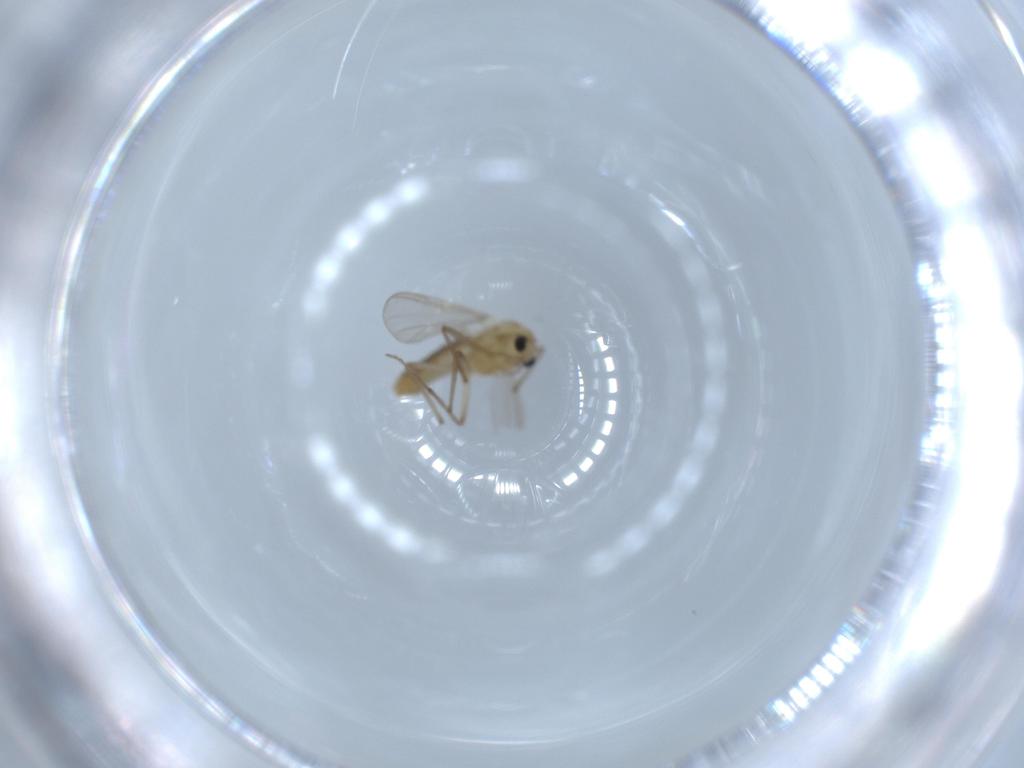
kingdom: Animalia
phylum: Arthropoda
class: Insecta
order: Diptera
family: Chironomidae
